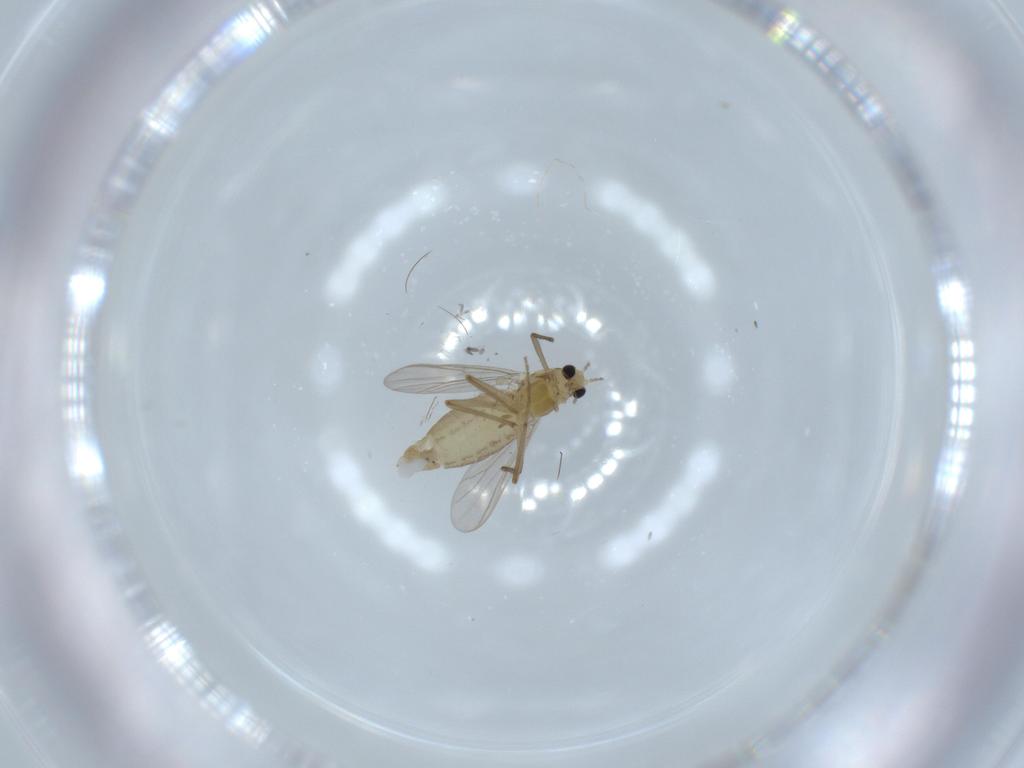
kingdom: Animalia
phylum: Arthropoda
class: Insecta
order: Diptera
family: Chironomidae
